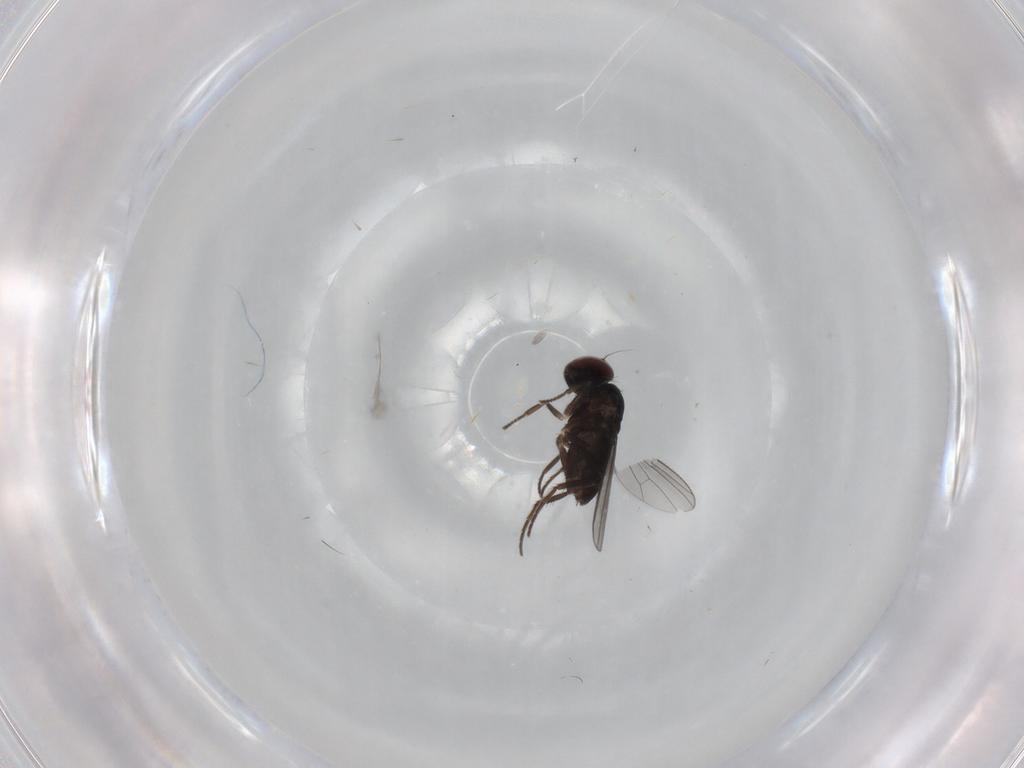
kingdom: Animalia
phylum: Arthropoda
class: Insecta
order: Diptera
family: Dolichopodidae
